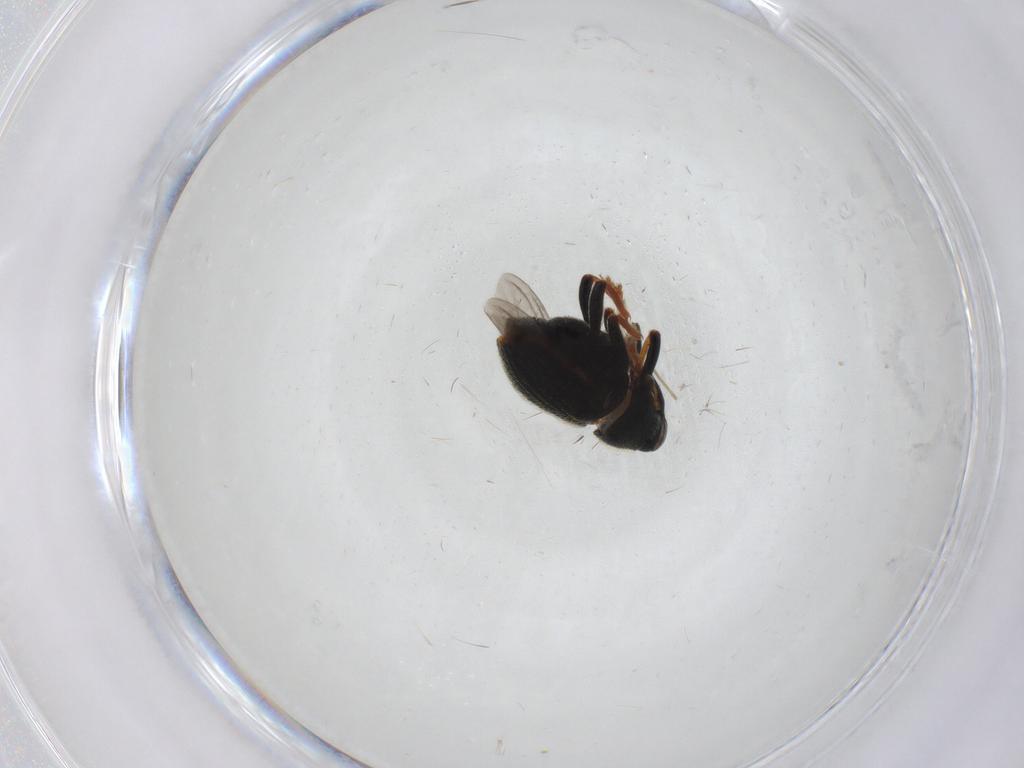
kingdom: Animalia
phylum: Arthropoda
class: Insecta
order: Coleoptera
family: Curculionidae
